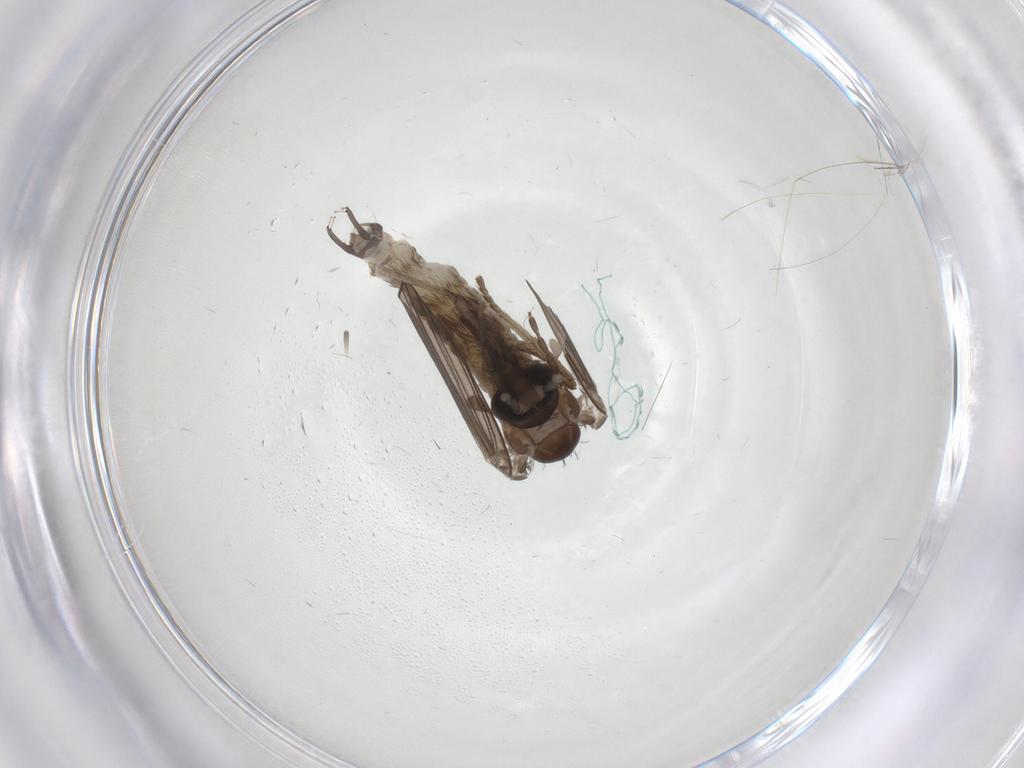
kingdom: Animalia
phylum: Arthropoda
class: Insecta
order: Diptera
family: Psychodidae
